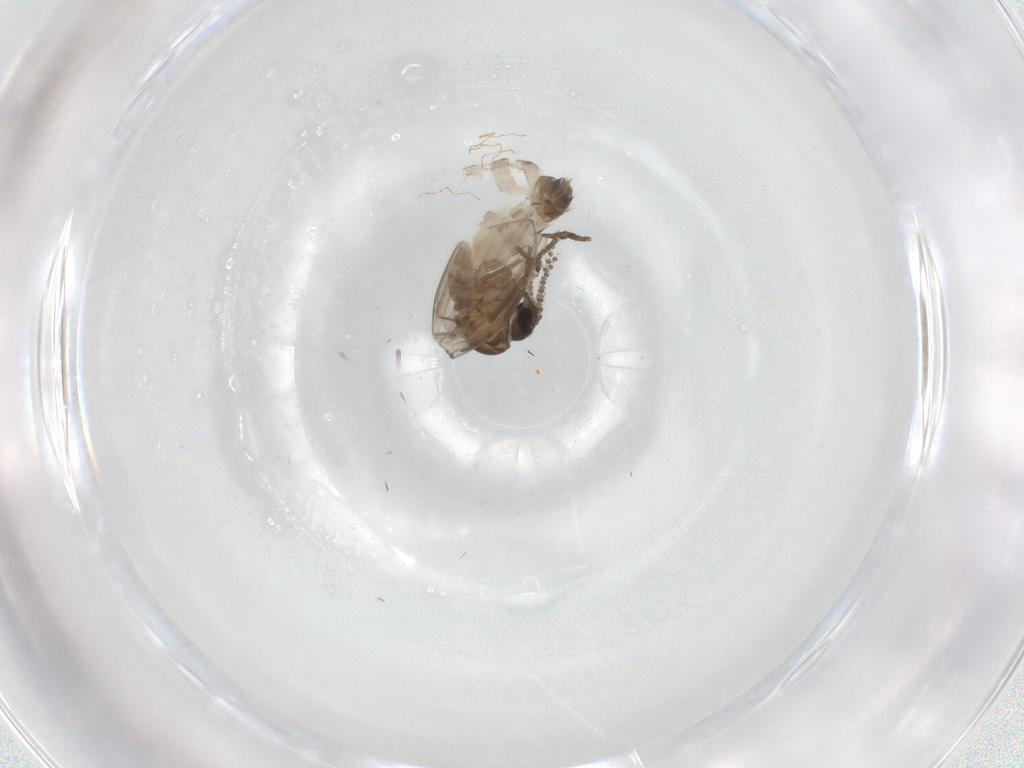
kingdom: Animalia
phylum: Arthropoda
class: Insecta
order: Diptera
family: Psychodidae
